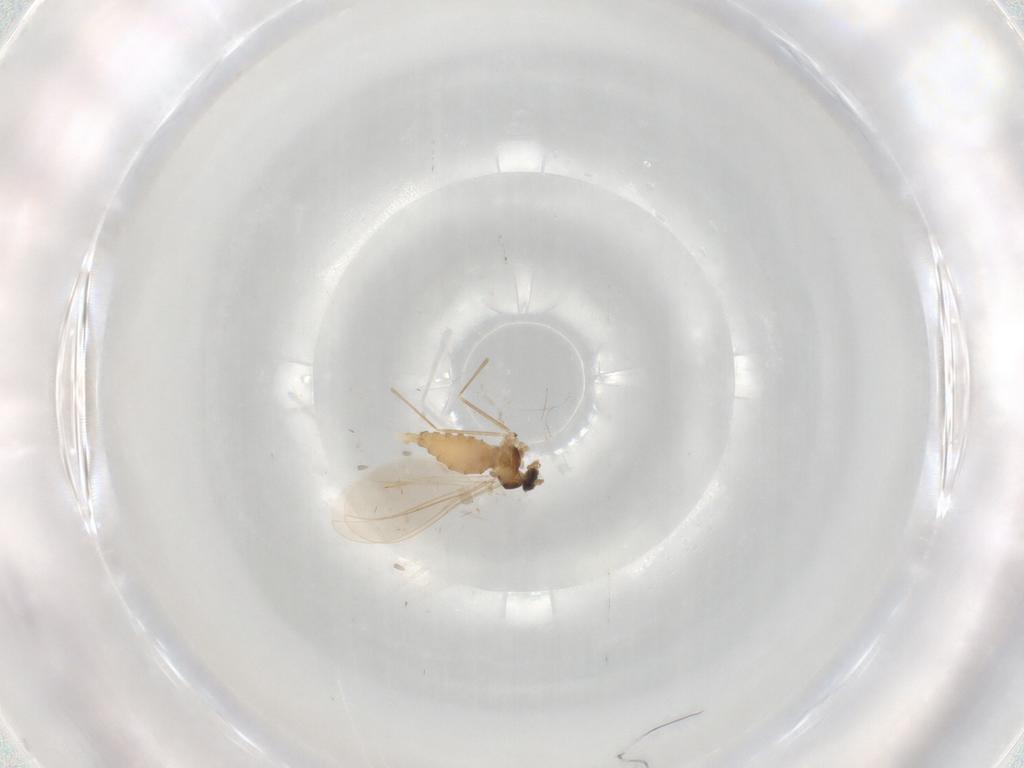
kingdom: Animalia
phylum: Arthropoda
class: Insecta
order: Diptera
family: Cecidomyiidae
